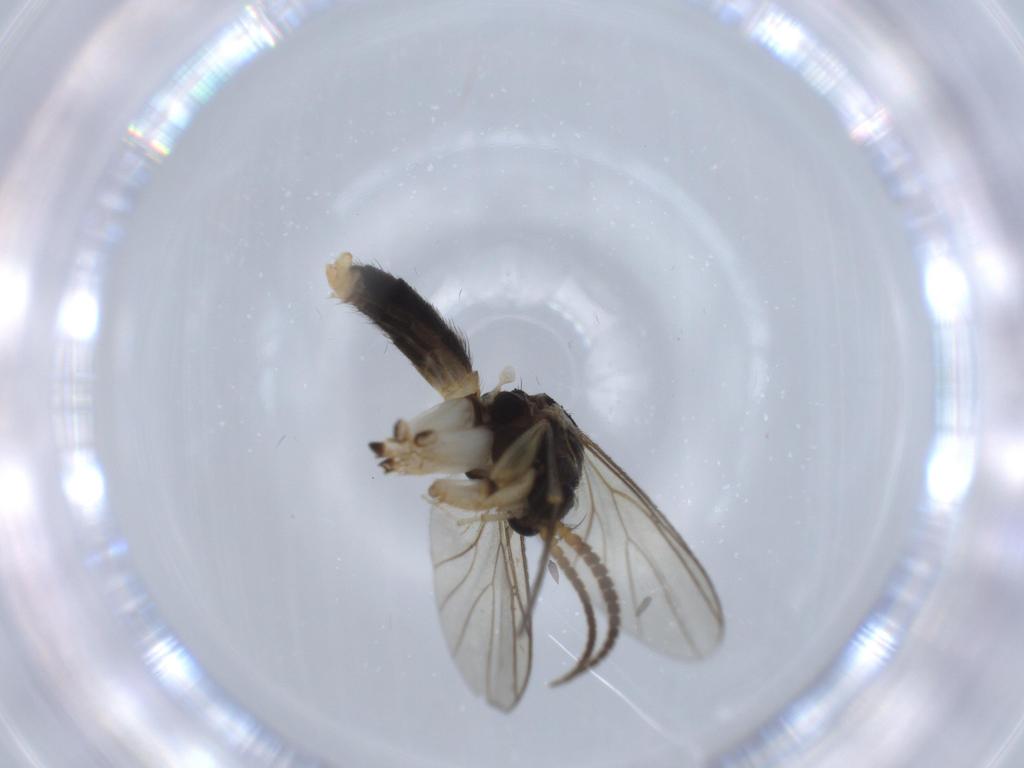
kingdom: Animalia
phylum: Arthropoda
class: Insecta
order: Diptera
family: Sciaridae
